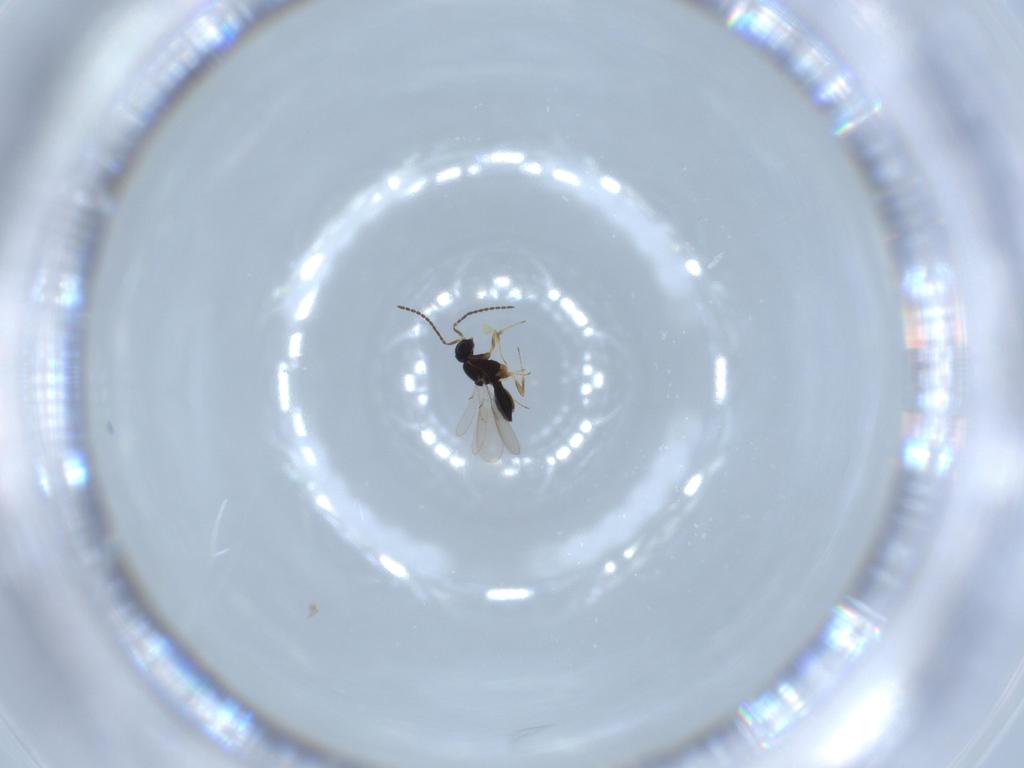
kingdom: Animalia
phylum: Arthropoda
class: Insecta
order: Hymenoptera
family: Scelionidae
